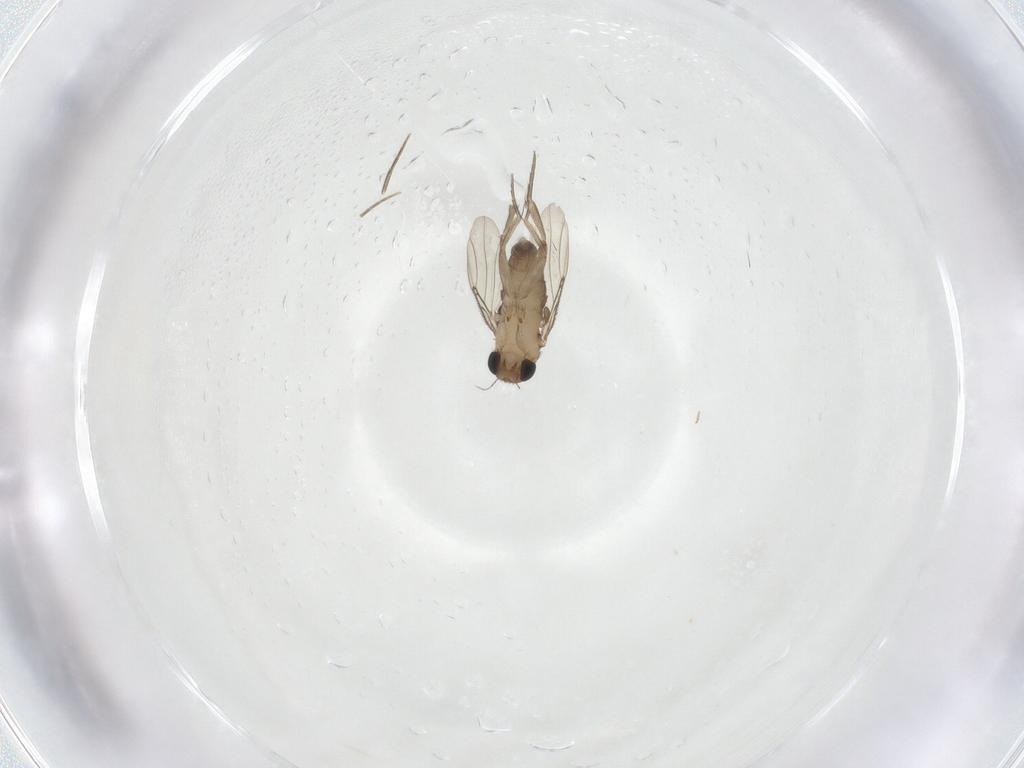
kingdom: Animalia
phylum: Arthropoda
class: Insecta
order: Diptera
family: Phoridae
